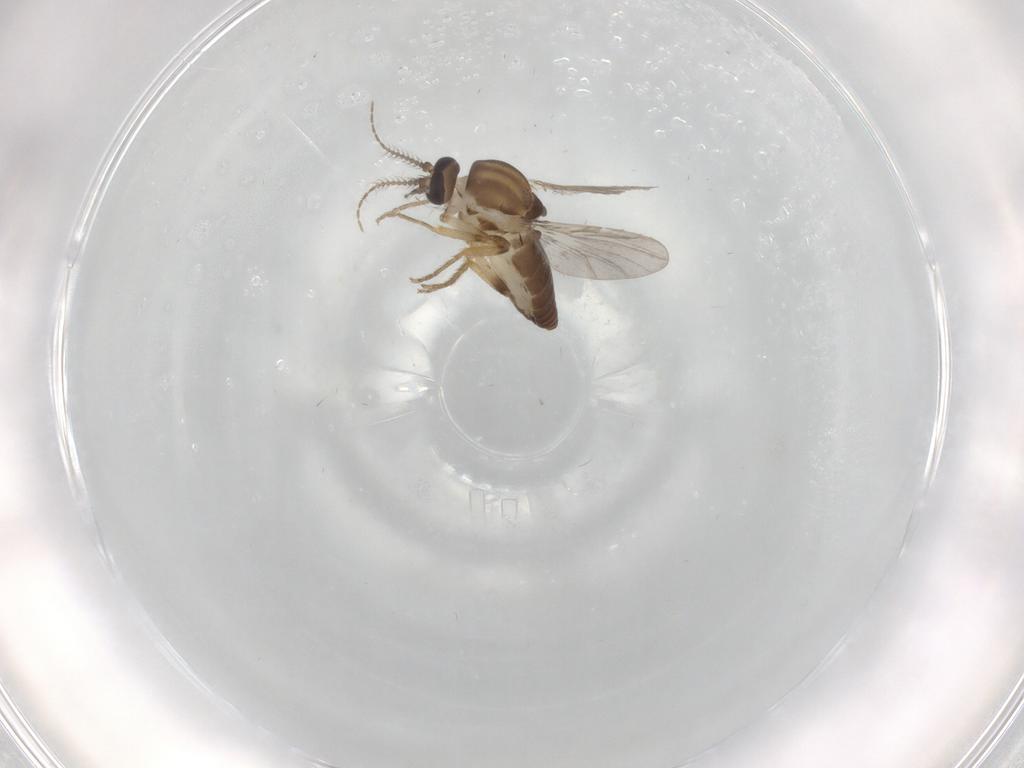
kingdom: Animalia
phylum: Arthropoda
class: Insecta
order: Diptera
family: Ceratopogonidae
